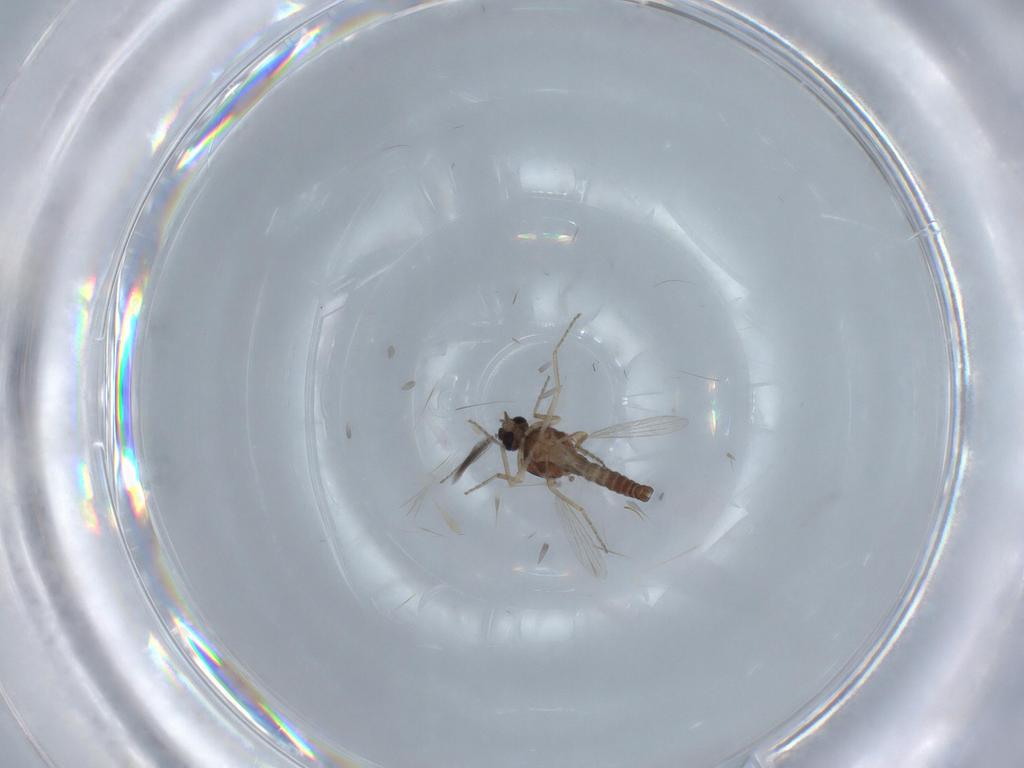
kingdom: Animalia
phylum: Arthropoda
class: Insecta
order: Diptera
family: Ceratopogonidae
